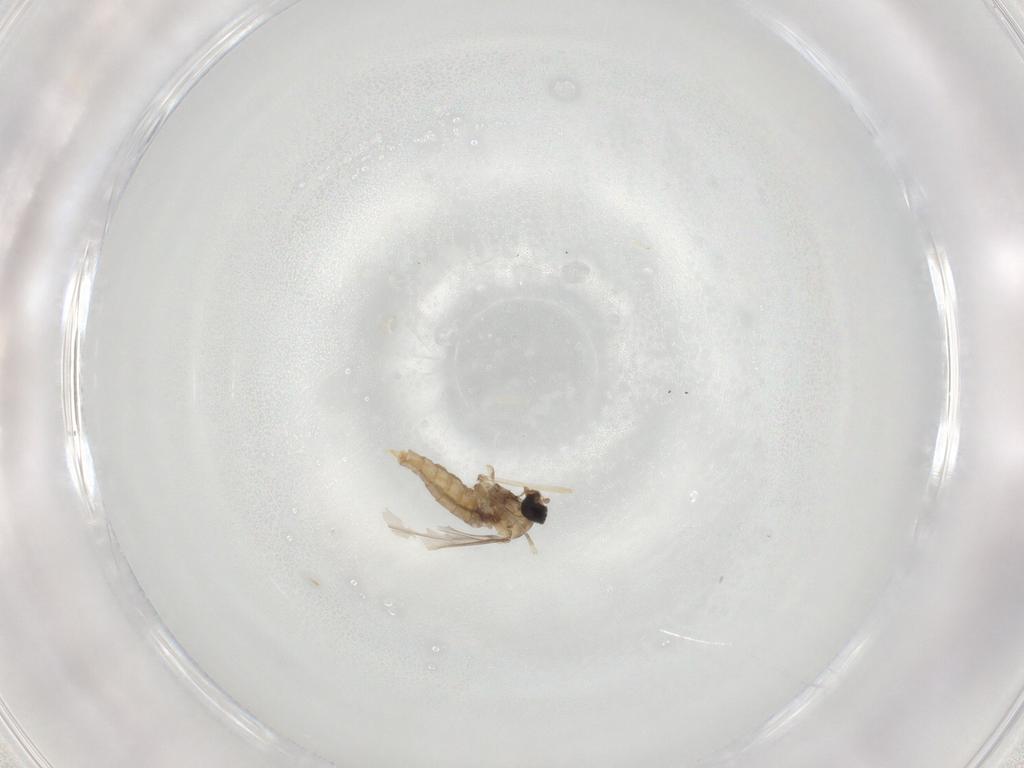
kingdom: Animalia
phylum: Arthropoda
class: Insecta
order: Diptera
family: Cecidomyiidae
